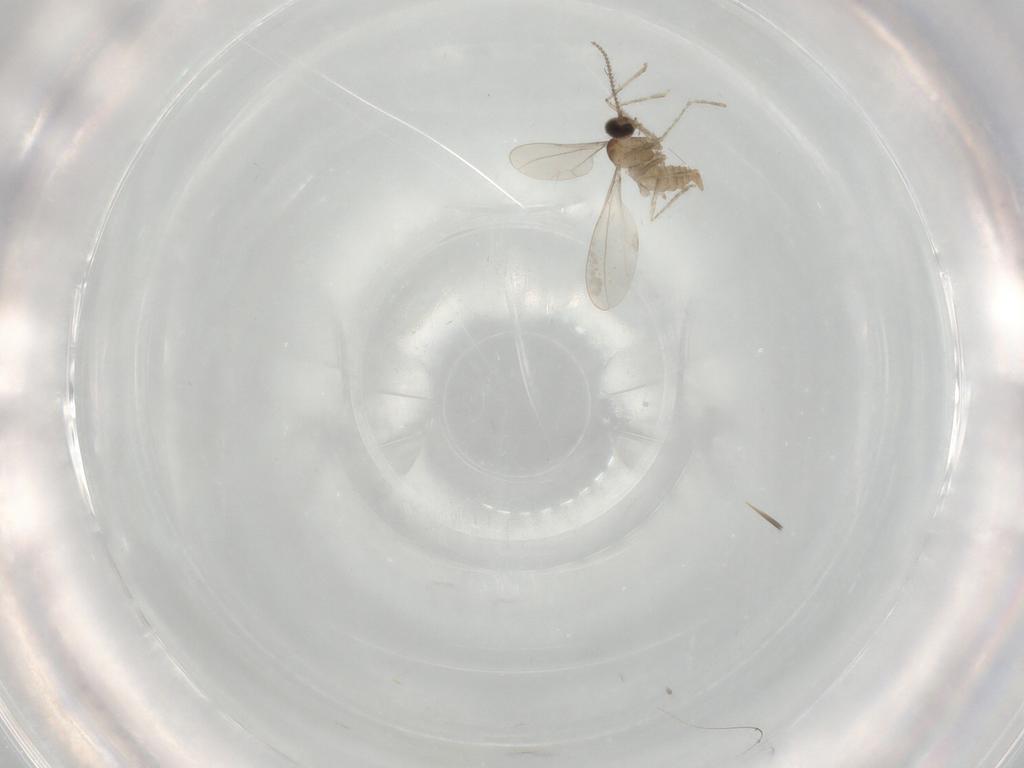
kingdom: Animalia
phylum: Arthropoda
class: Insecta
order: Diptera
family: Cecidomyiidae
